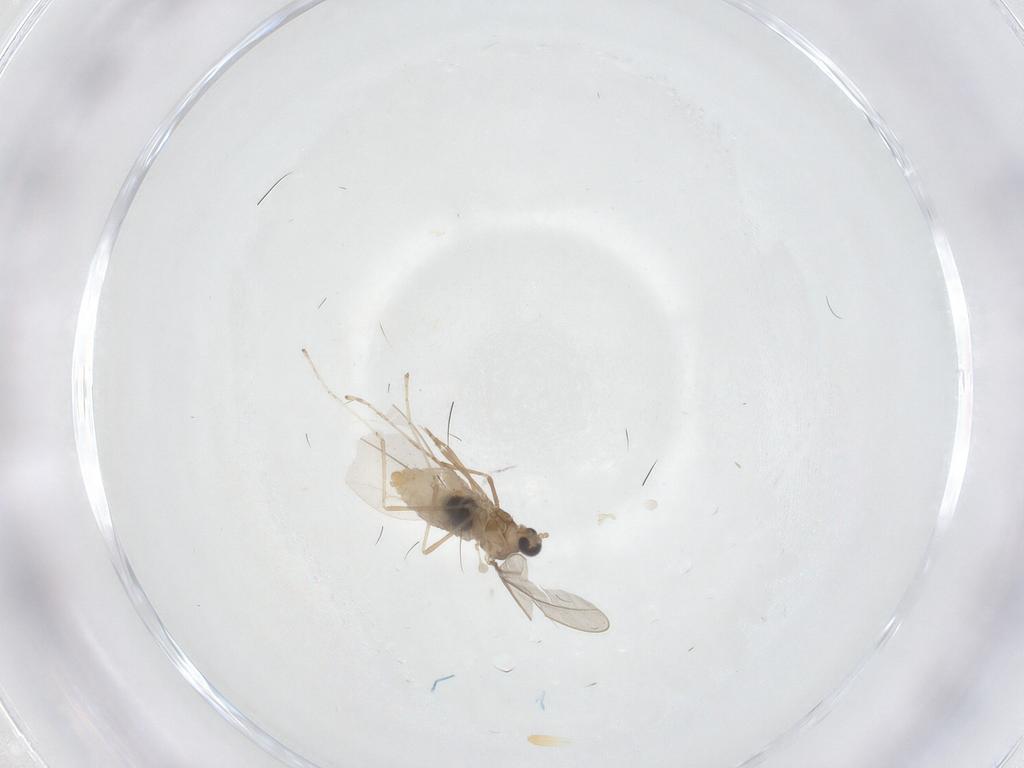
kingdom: Animalia
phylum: Arthropoda
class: Insecta
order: Diptera
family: Cecidomyiidae
